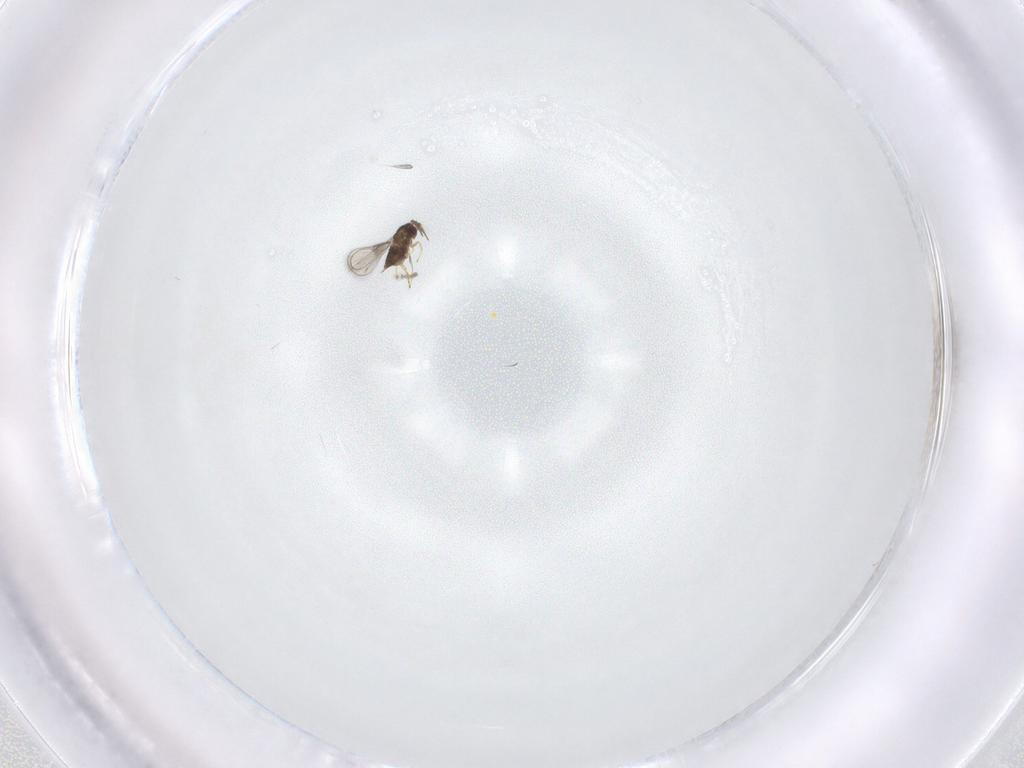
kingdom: Animalia
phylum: Arthropoda
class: Insecta
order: Hymenoptera
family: Trichogrammatidae
